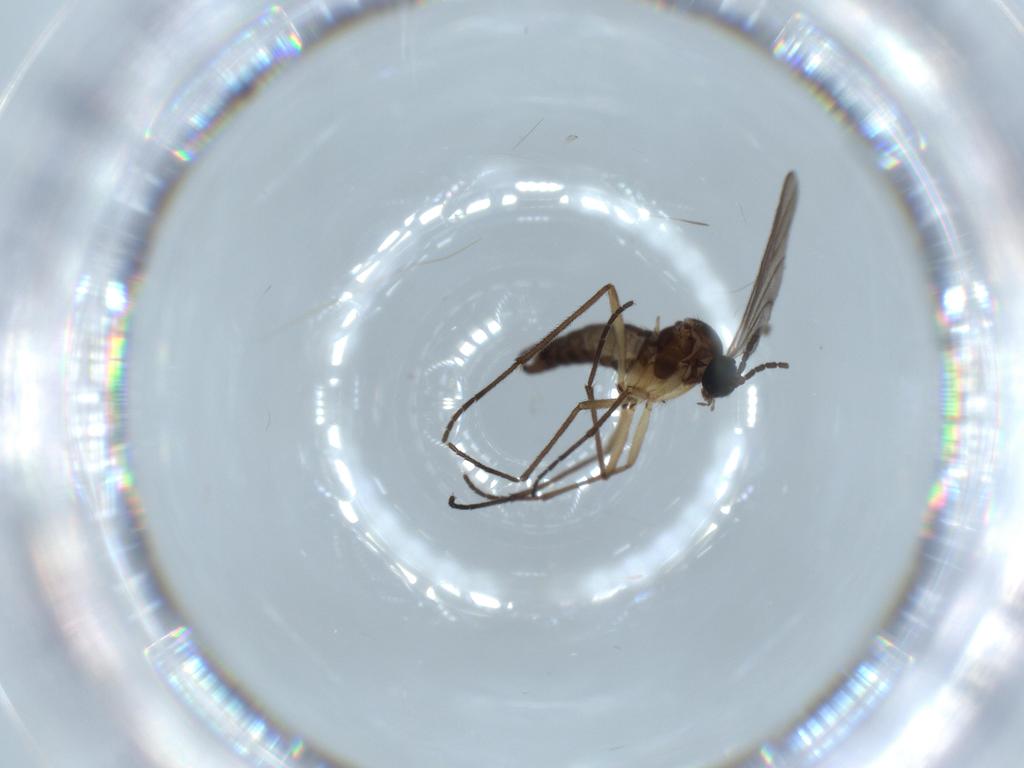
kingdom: Animalia
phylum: Arthropoda
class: Insecta
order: Diptera
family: Sciaridae
